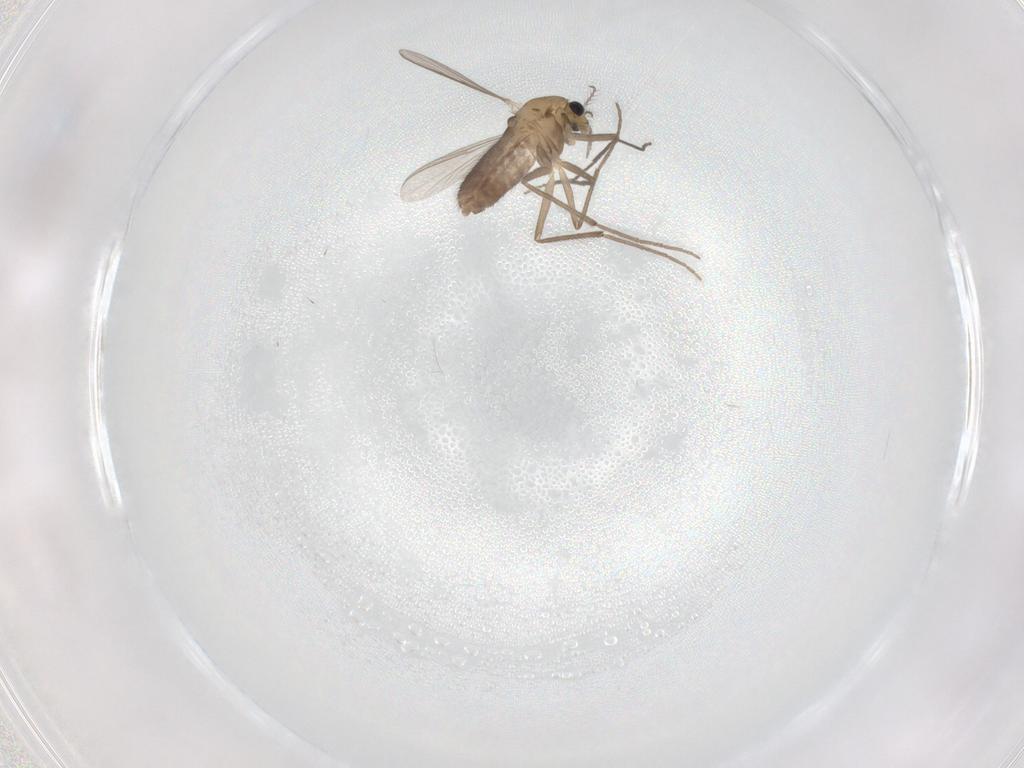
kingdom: Animalia
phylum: Arthropoda
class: Insecta
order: Diptera
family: Chironomidae
